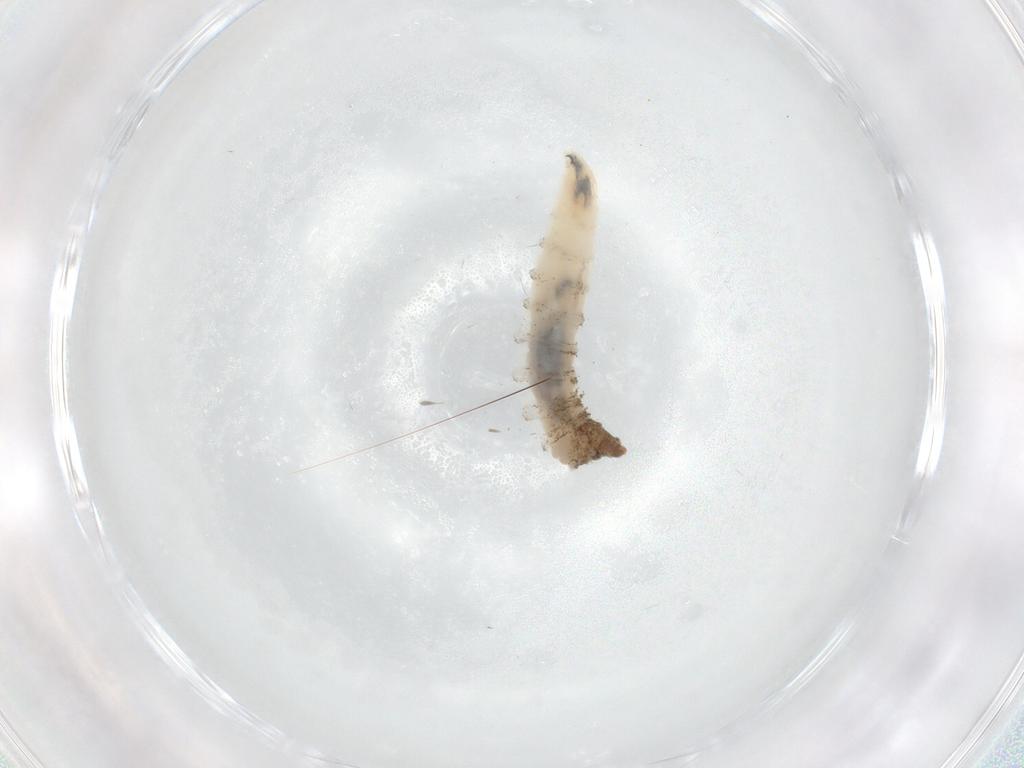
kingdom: Animalia
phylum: Arthropoda
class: Insecta
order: Diptera
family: Chironomidae
